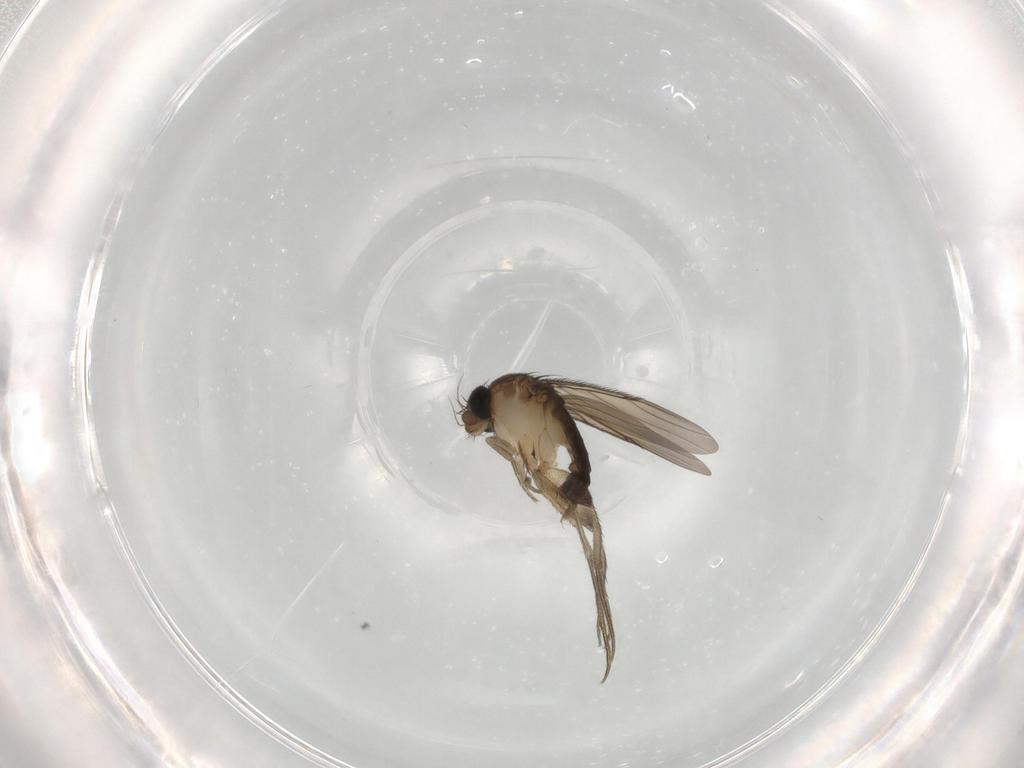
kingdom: Animalia
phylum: Arthropoda
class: Insecta
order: Diptera
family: Phoridae
